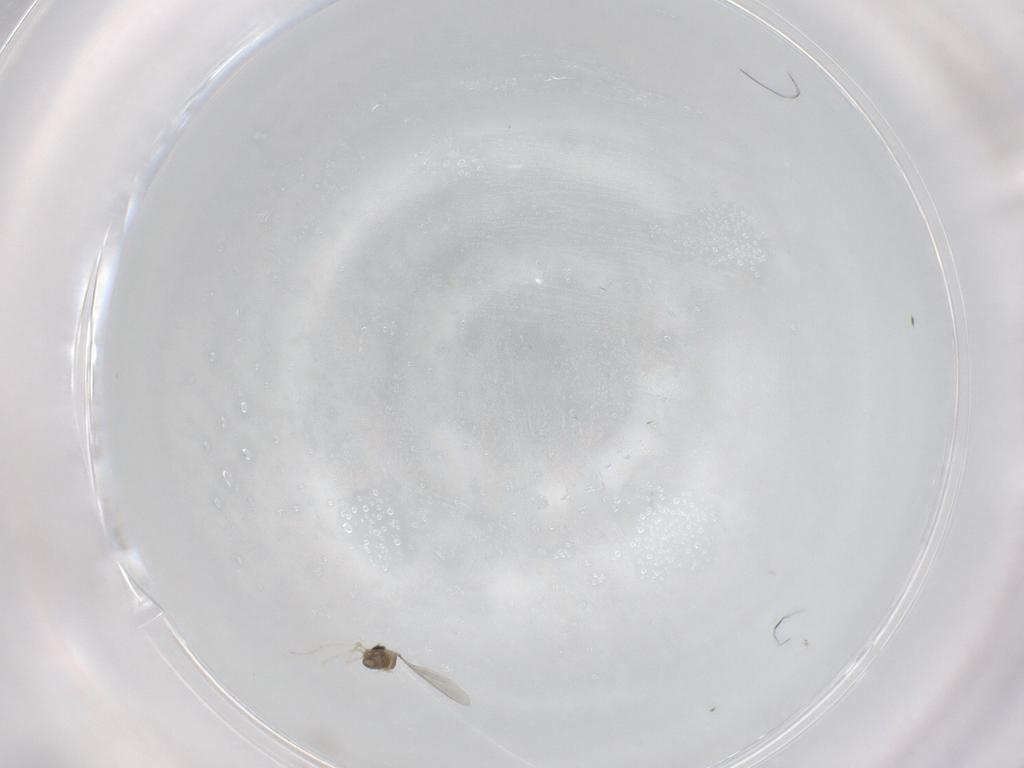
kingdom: Animalia
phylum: Arthropoda
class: Insecta
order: Diptera
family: Cecidomyiidae
